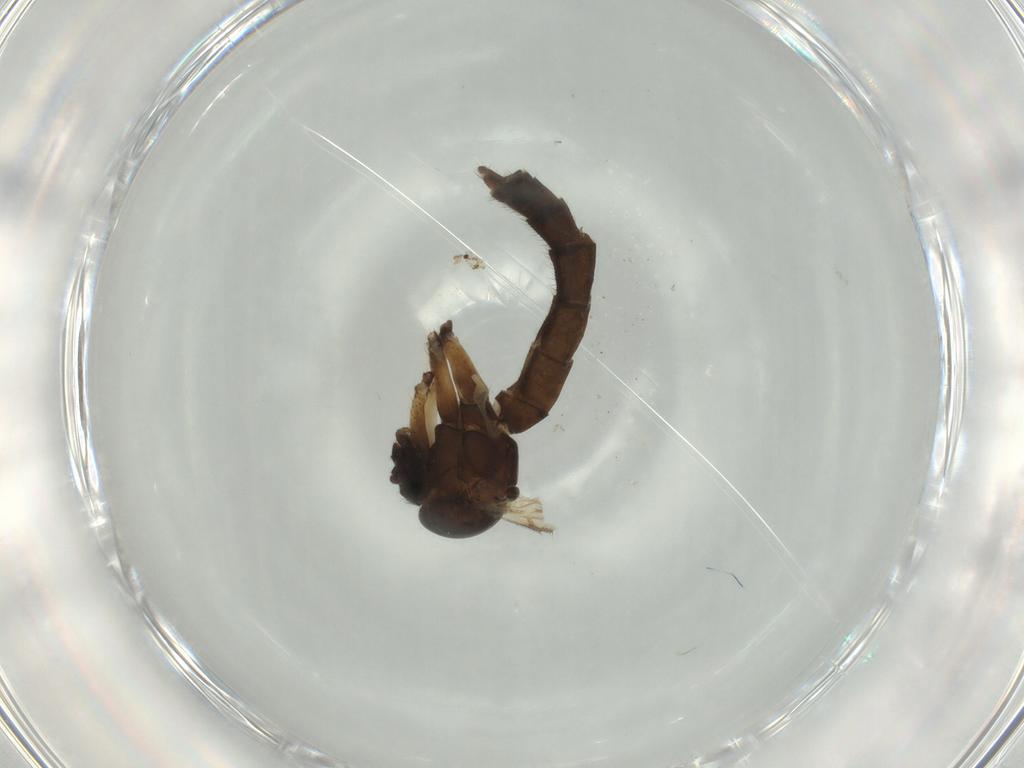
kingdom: Animalia
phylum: Arthropoda
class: Insecta
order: Diptera
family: Mycetophilidae
